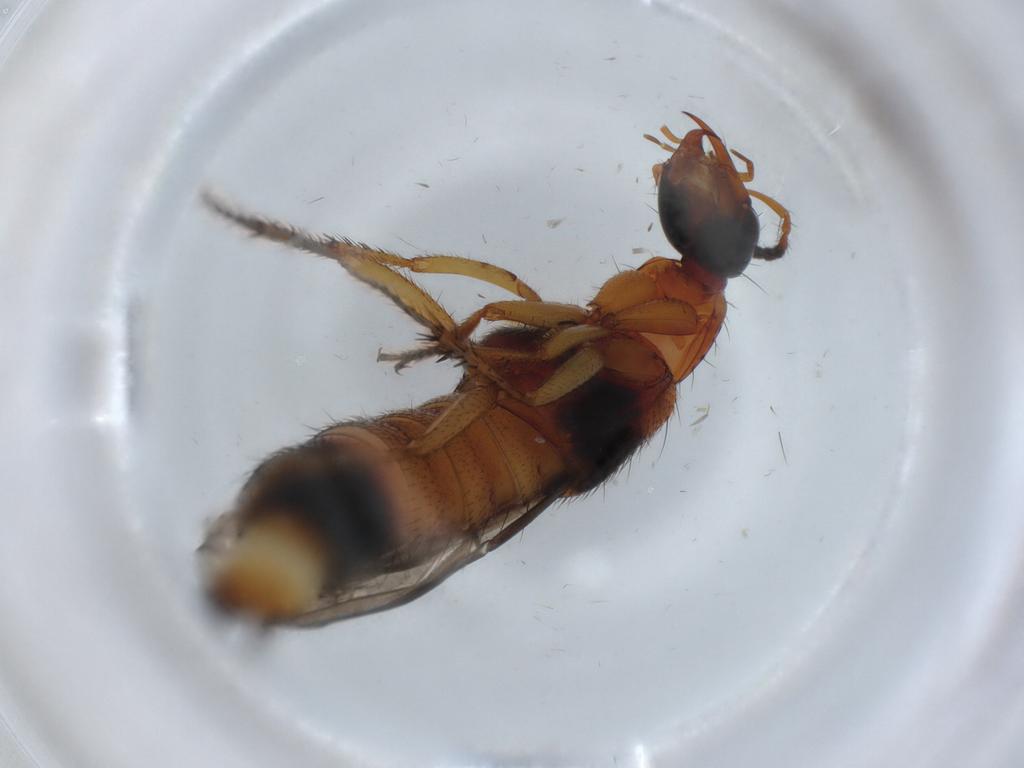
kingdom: Animalia
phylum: Arthropoda
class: Insecta
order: Coleoptera
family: Staphylinidae
